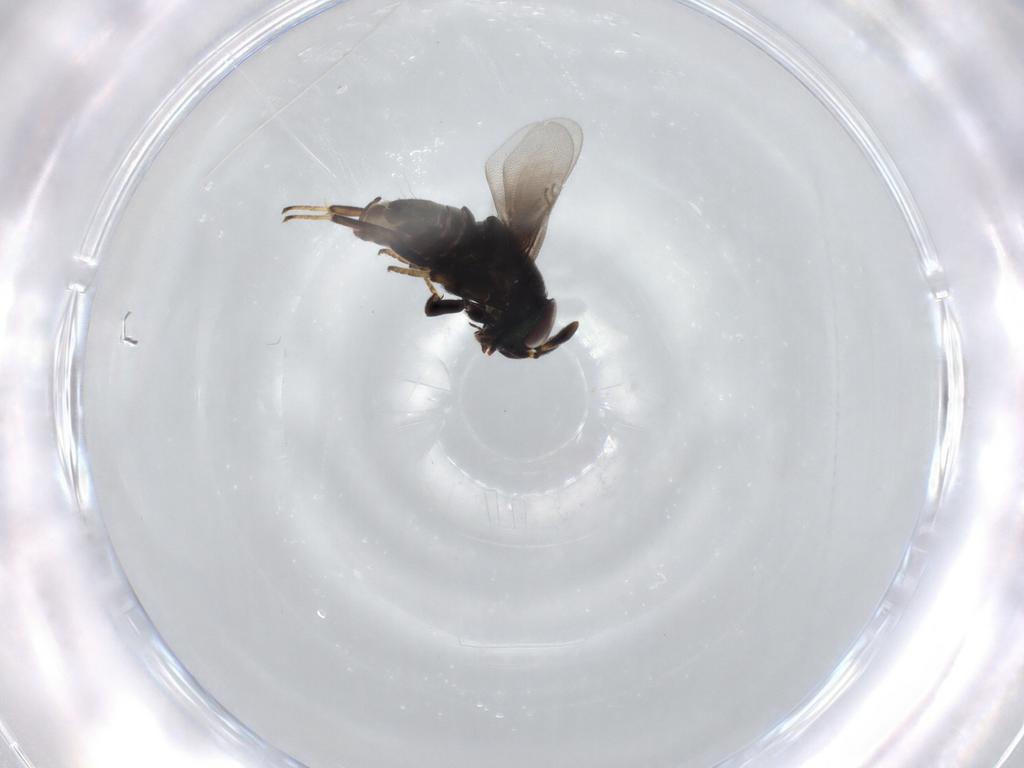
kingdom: Animalia
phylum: Arthropoda
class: Insecta
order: Hymenoptera
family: Encyrtidae
